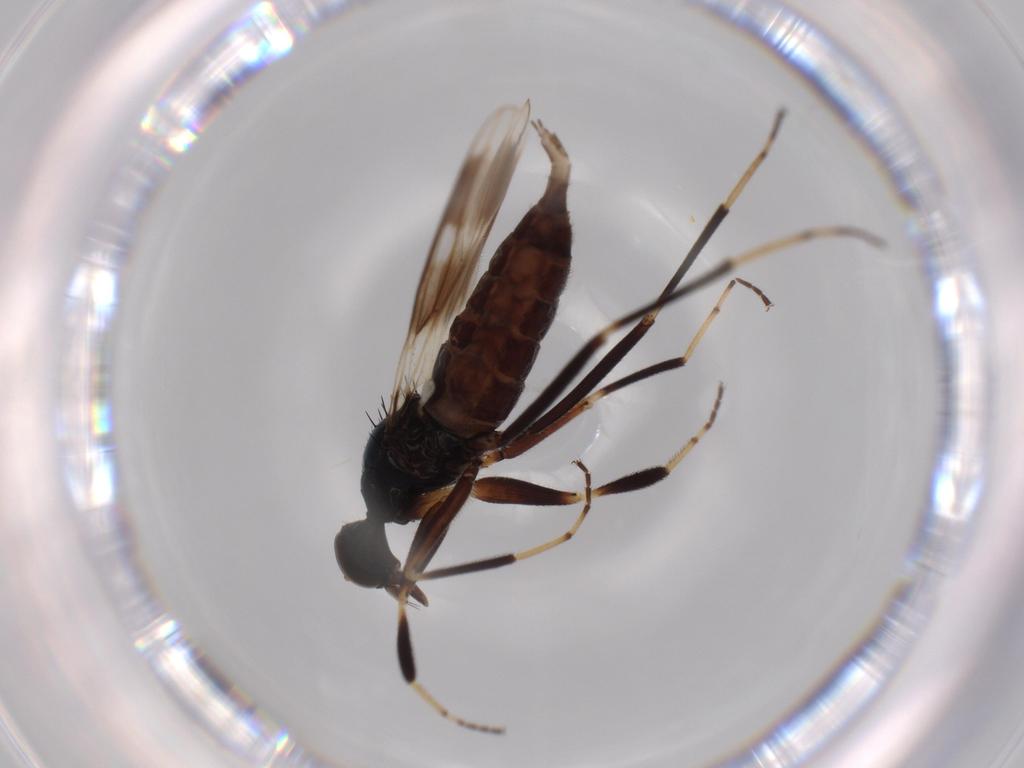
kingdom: Animalia
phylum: Arthropoda
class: Insecta
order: Diptera
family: Hybotidae
